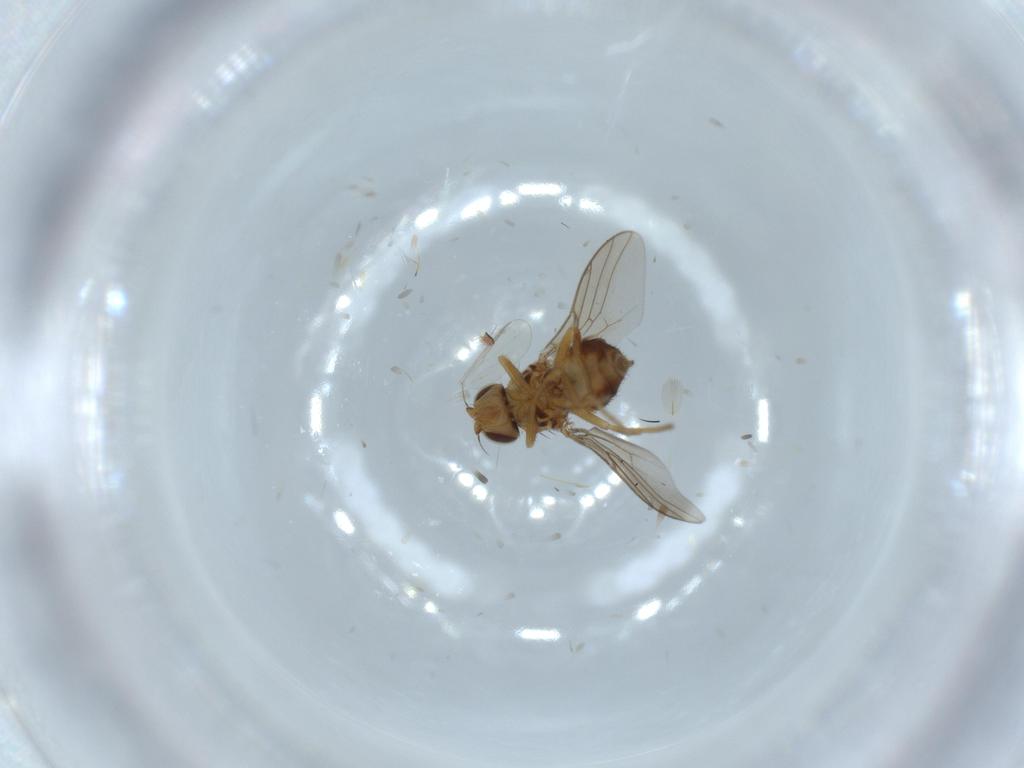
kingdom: Animalia
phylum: Arthropoda
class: Insecta
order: Diptera
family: Chloropidae
